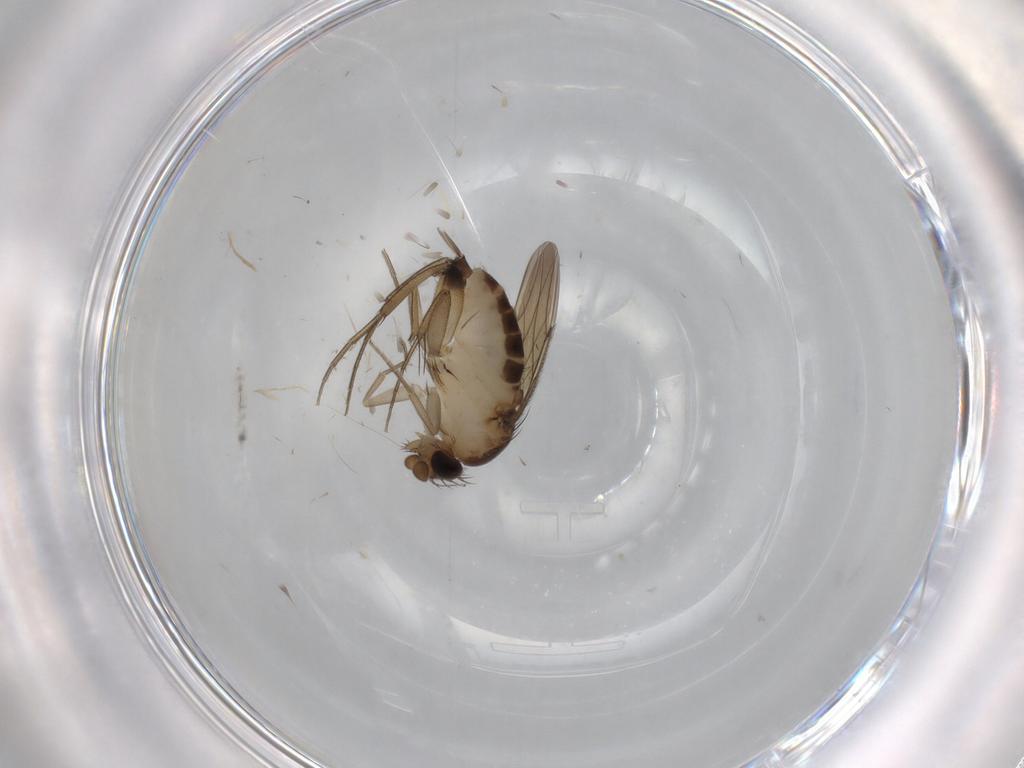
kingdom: Animalia
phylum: Arthropoda
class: Insecta
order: Diptera
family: Phoridae
